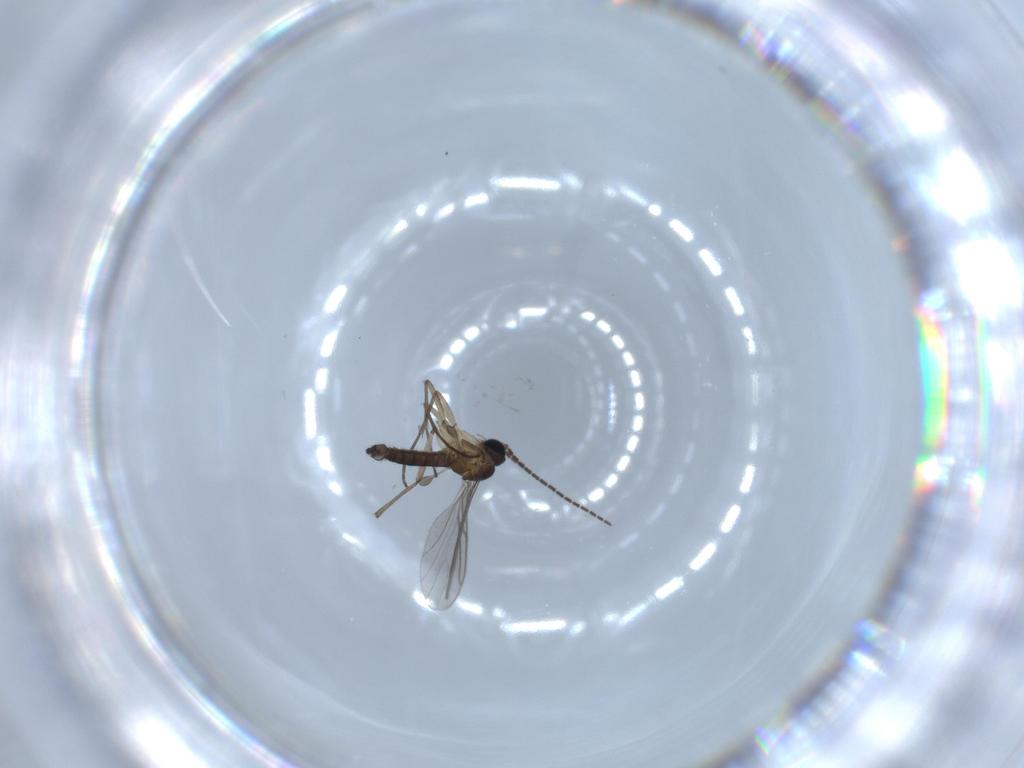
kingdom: Animalia
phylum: Arthropoda
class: Insecta
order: Diptera
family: Sciaridae
